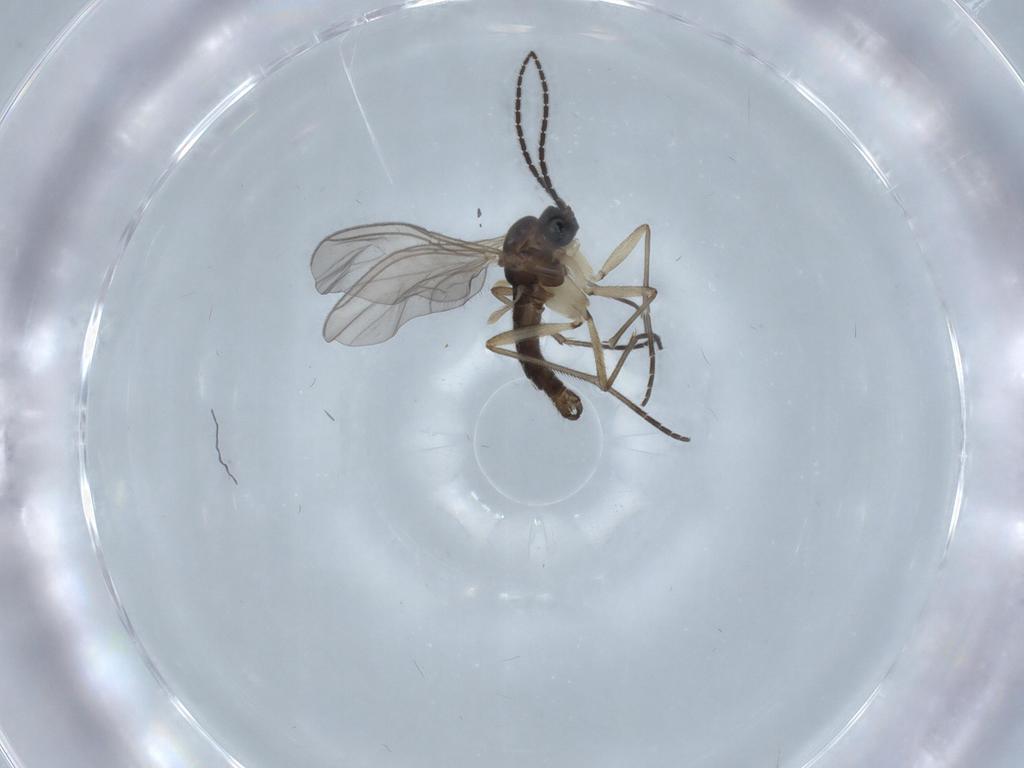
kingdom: Animalia
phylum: Arthropoda
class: Insecta
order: Diptera
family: Sciaridae
